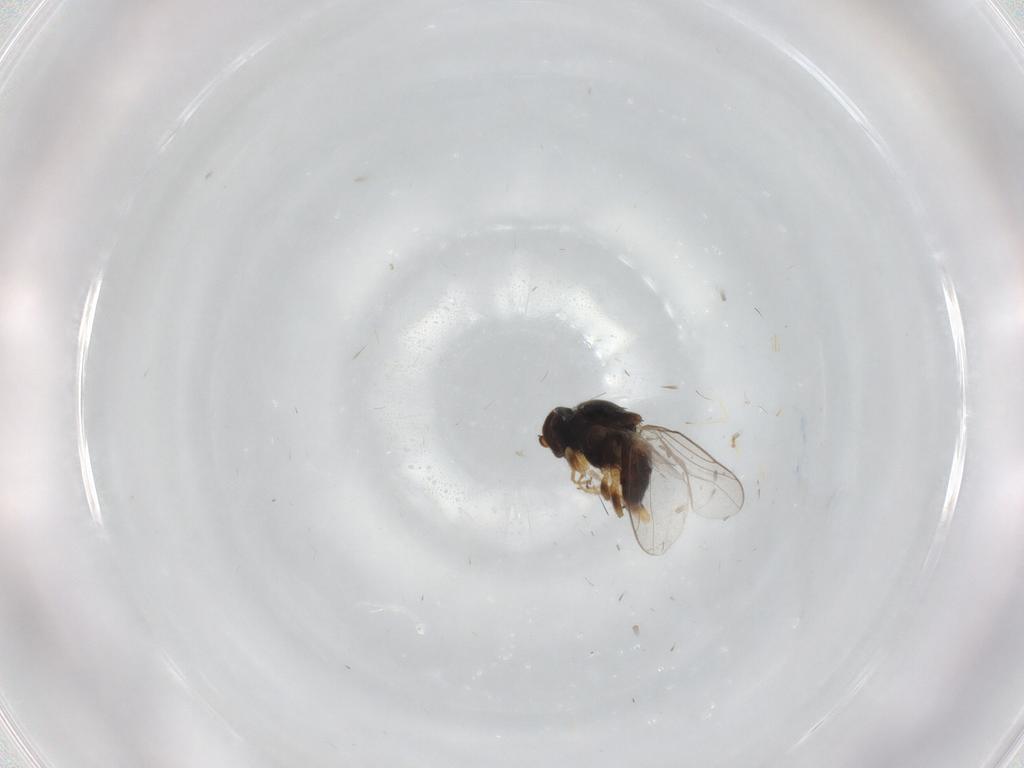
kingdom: Animalia
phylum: Arthropoda
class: Insecta
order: Diptera
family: Chloropidae
